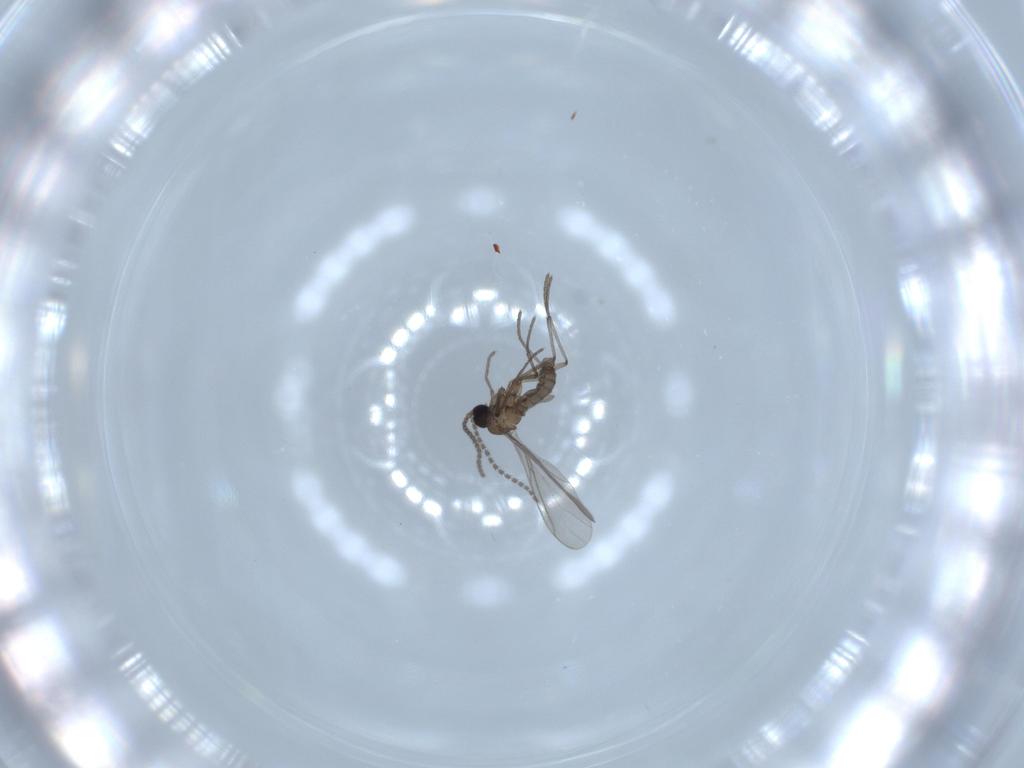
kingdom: Animalia
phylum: Arthropoda
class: Insecta
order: Diptera
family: Sciaridae
